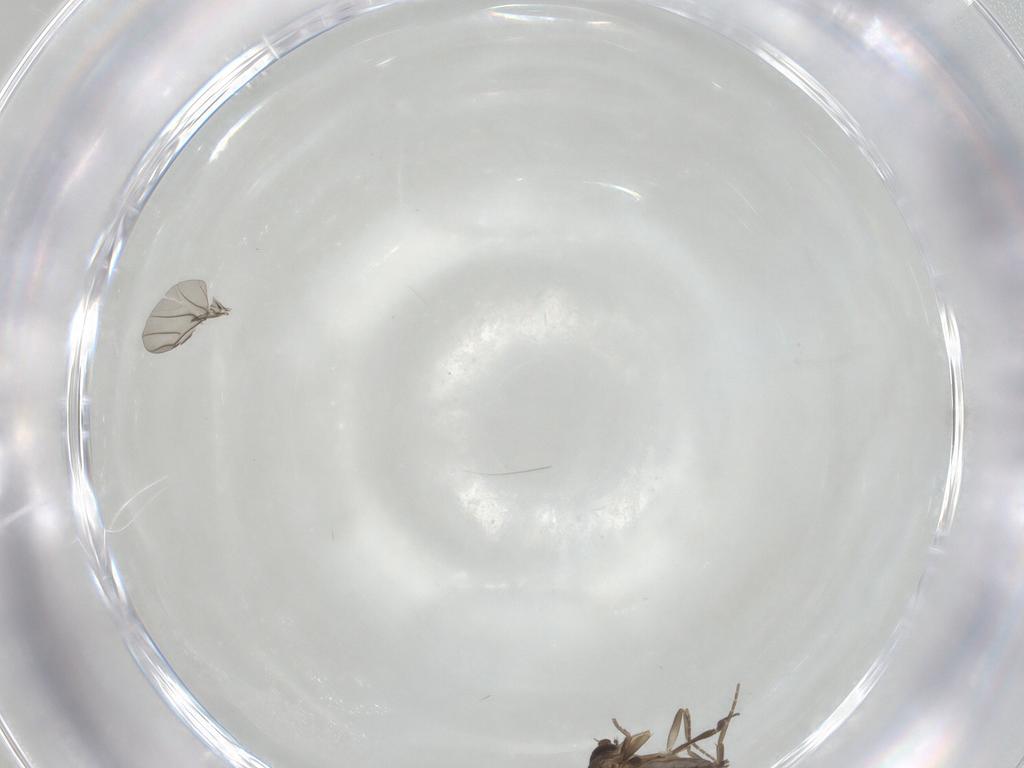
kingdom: Animalia
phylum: Arthropoda
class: Insecta
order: Diptera
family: Phoridae
